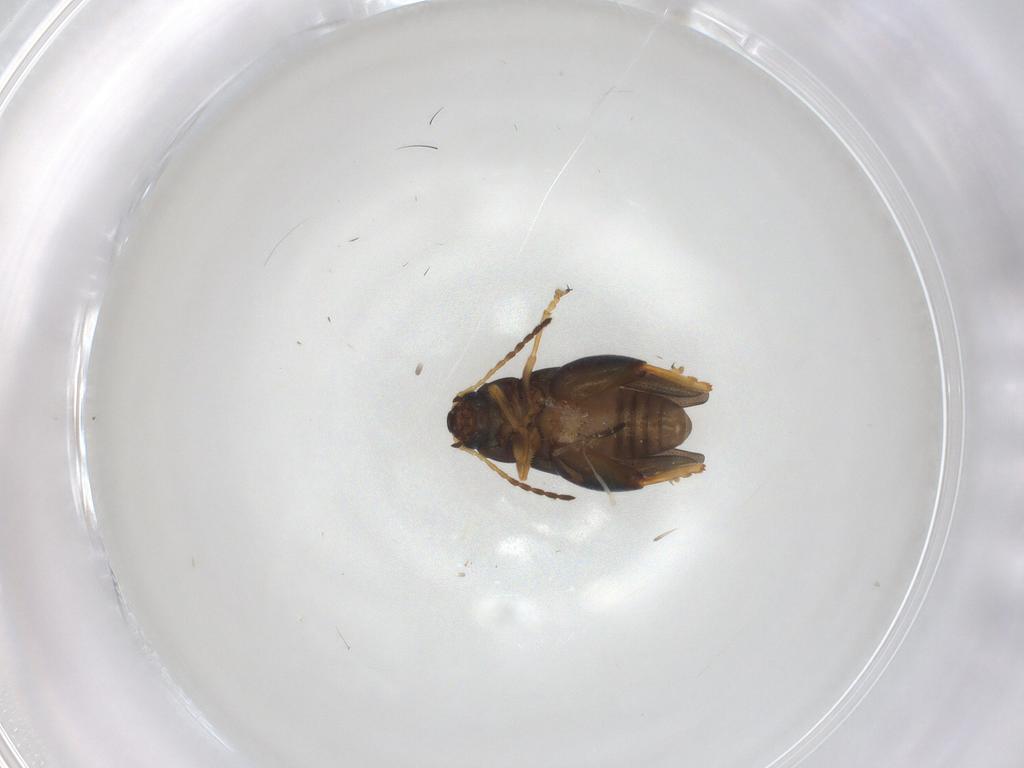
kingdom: Animalia
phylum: Arthropoda
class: Insecta
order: Coleoptera
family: Chrysomelidae
